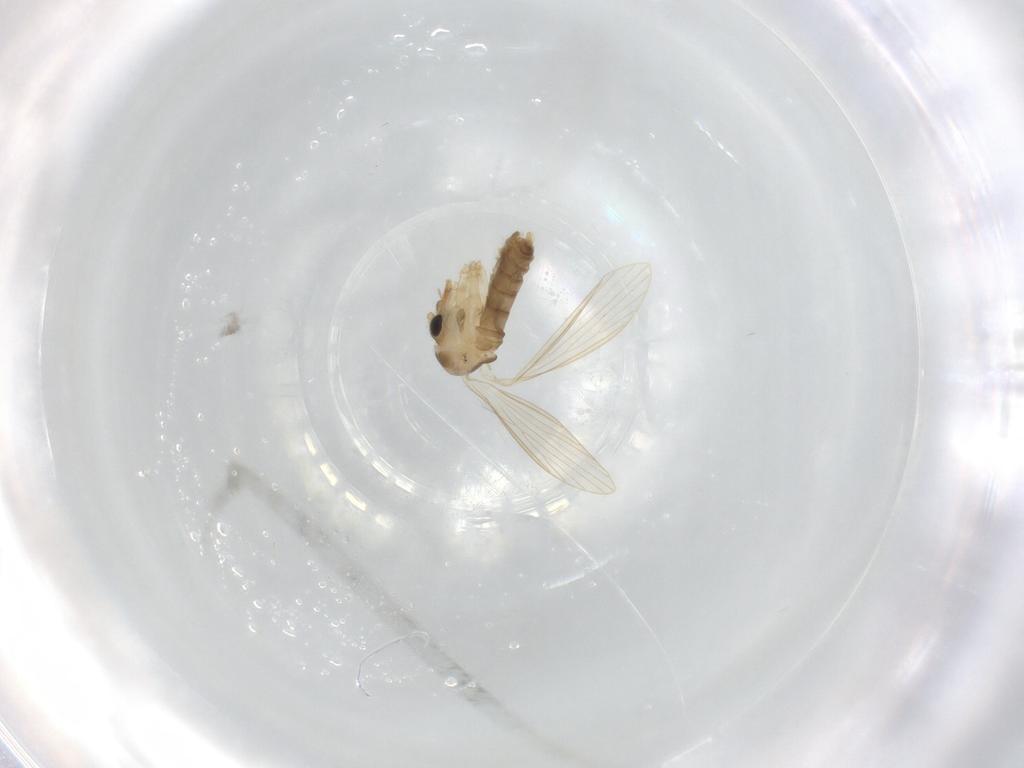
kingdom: Animalia
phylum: Arthropoda
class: Insecta
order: Diptera
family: Psychodidae
